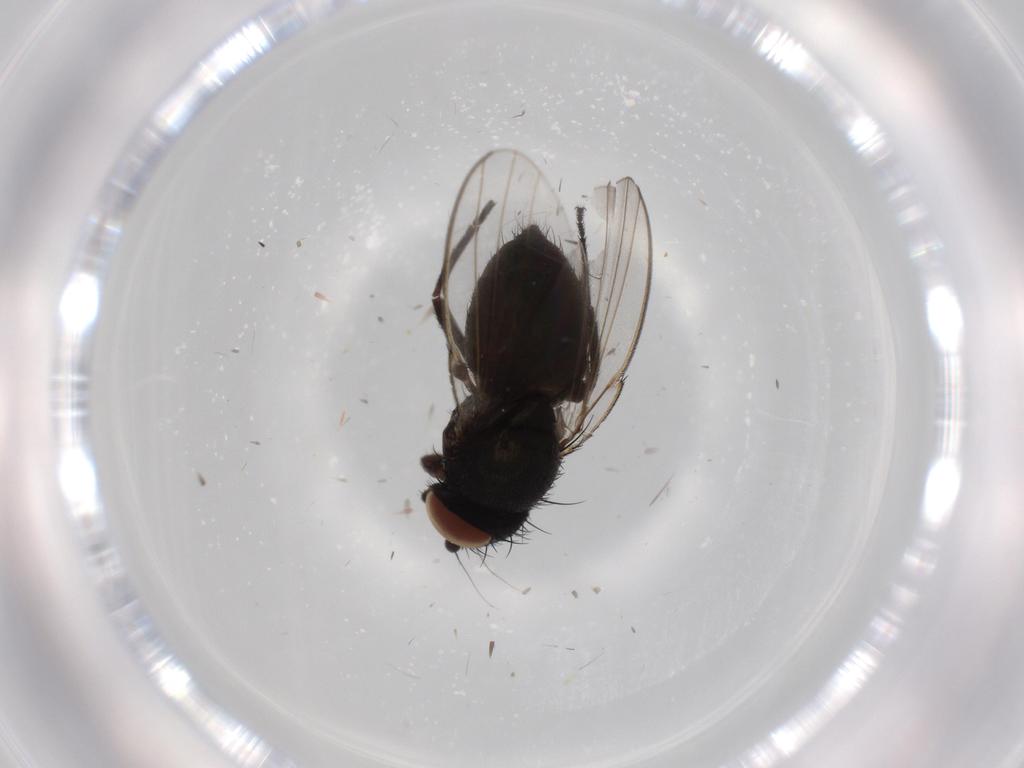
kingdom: Animalia
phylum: Arthropoda
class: Insecta
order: Diptera
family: Milichiidae
